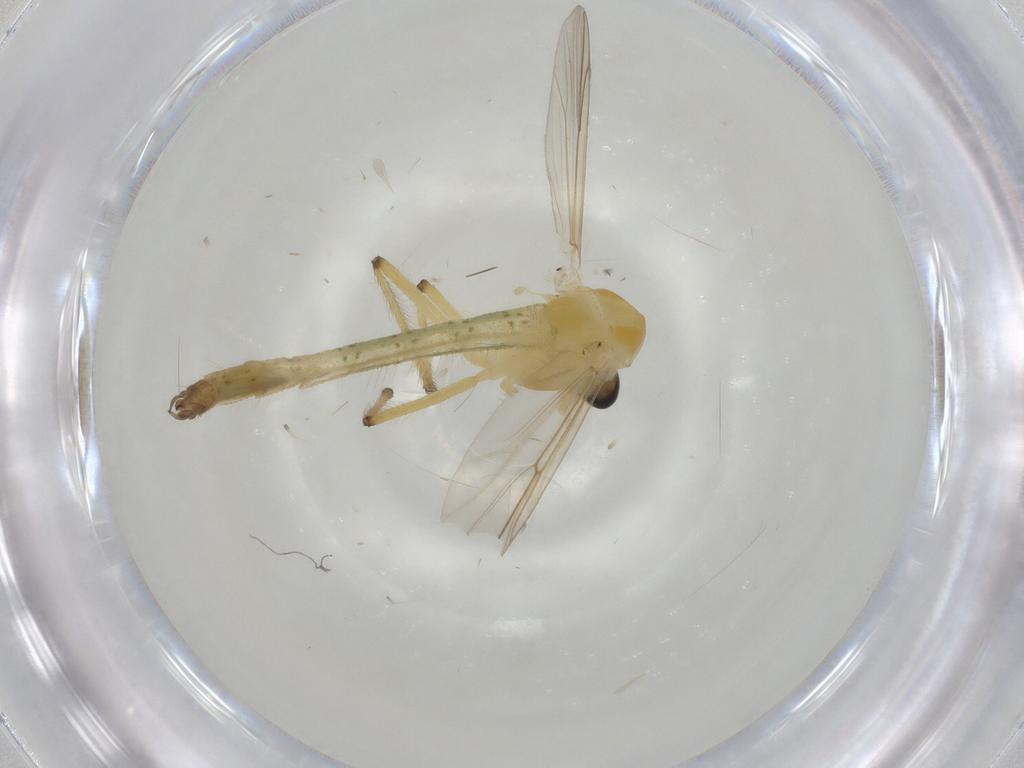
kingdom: Animalia
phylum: Arthropoda
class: Insecta
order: Diptera
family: Chironomidae
